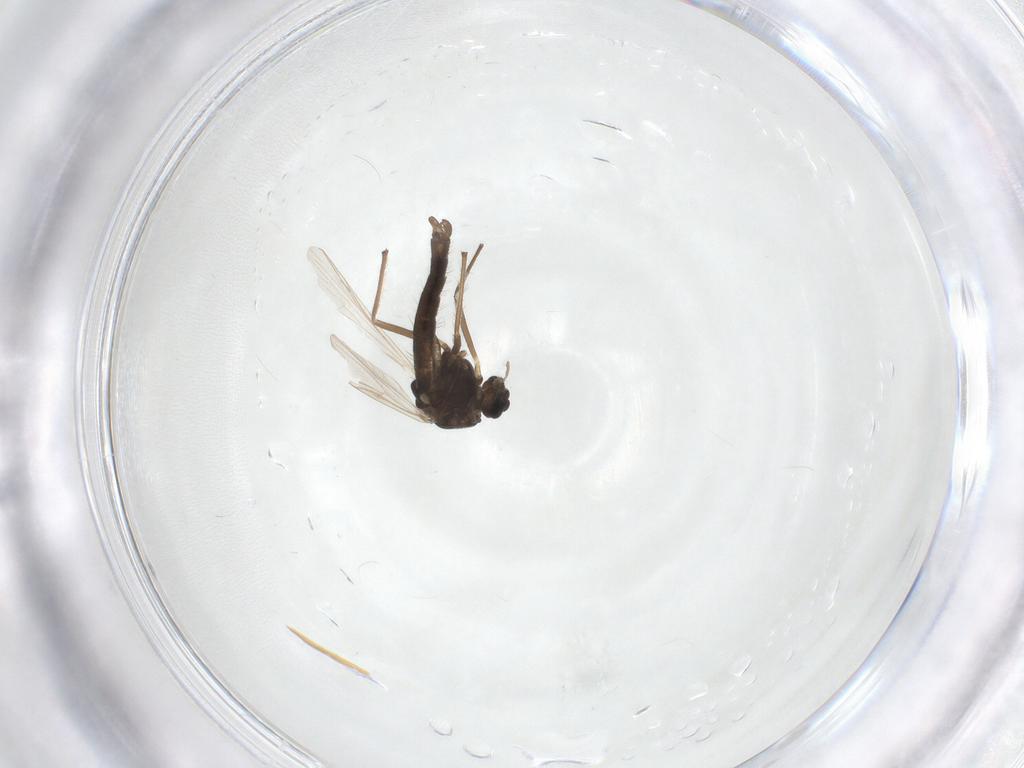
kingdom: Animalia
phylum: Arthropoda
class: Insecta
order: Diptera
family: Chironomidae
